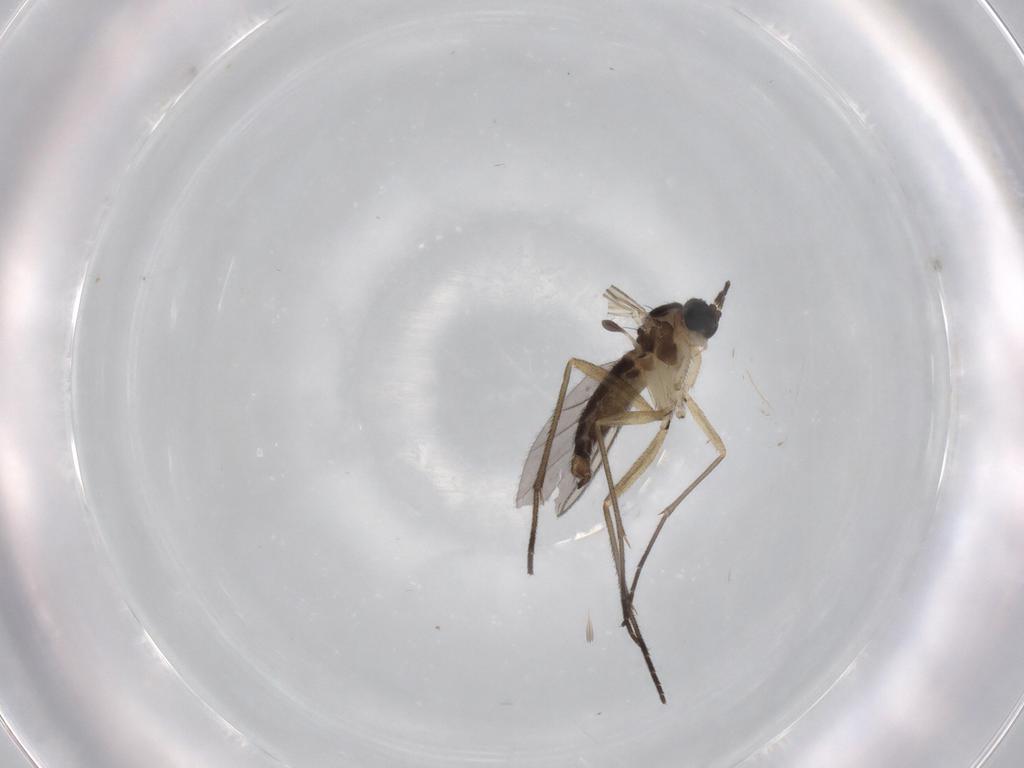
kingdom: Animalia
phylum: Arthropoda
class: Insecta
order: Diptera
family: Sciaridae
